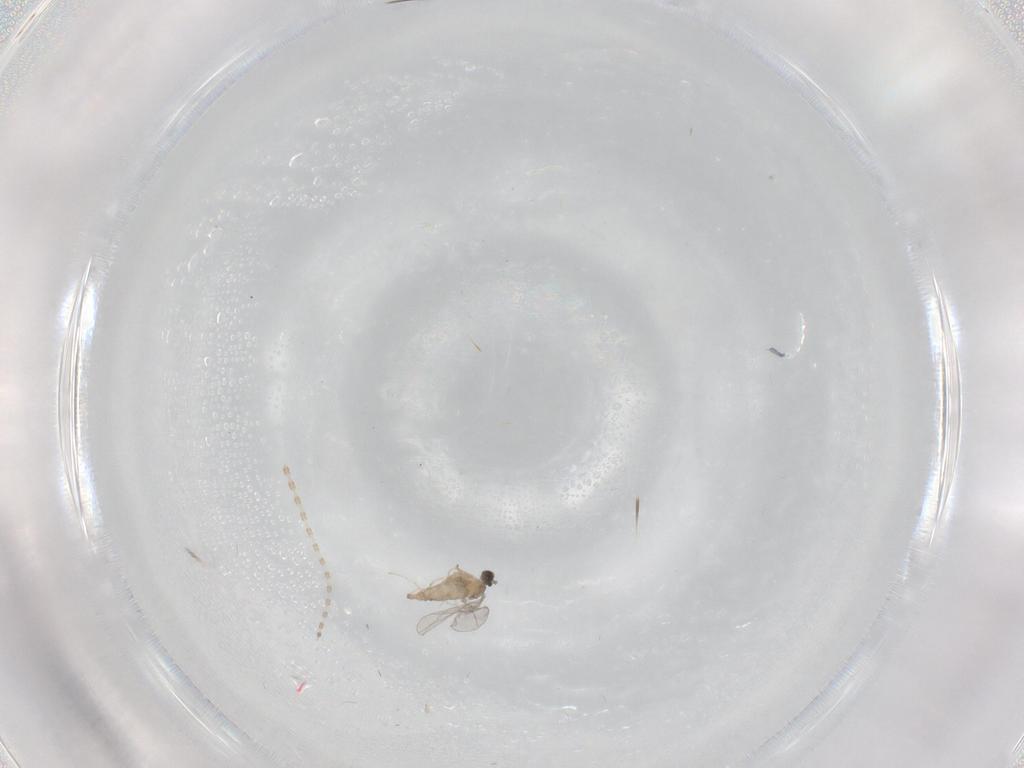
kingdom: Animalia
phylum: Arthropoda
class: Insecta
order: Diptera
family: Cecidomyiidae
